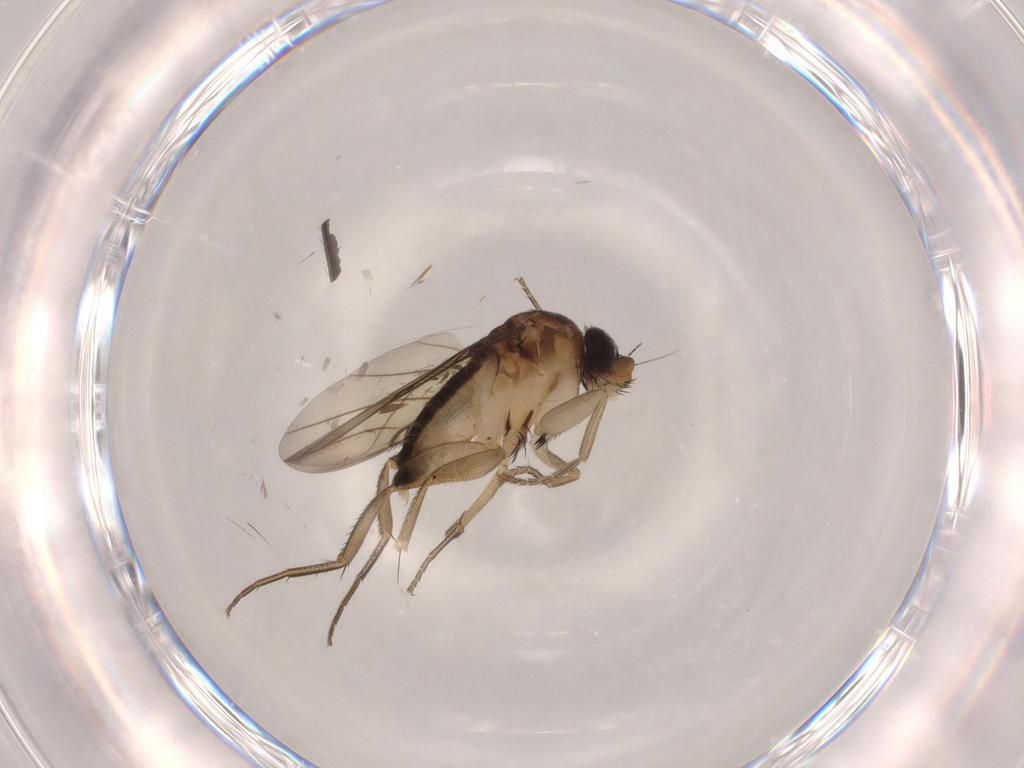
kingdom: Animalia
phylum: Arthropoda
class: Insecta
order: Diptera
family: Phoridae
